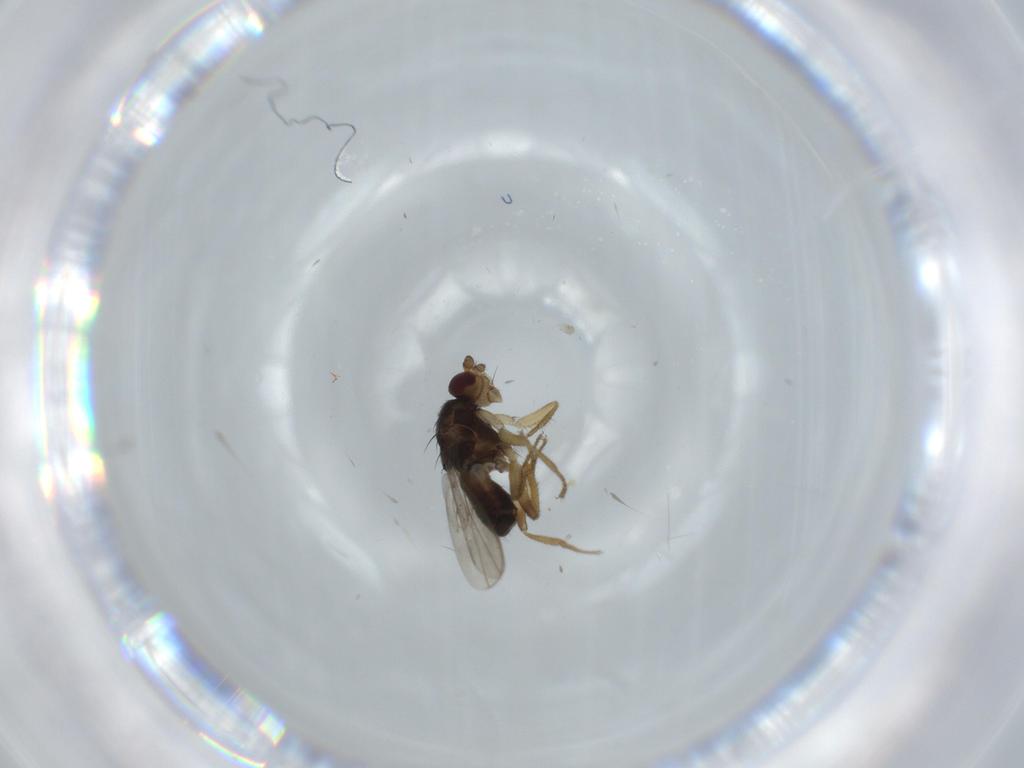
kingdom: Animalia
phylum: Arthropoda
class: Insecta
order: Diptera
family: Sphaeroceridae
